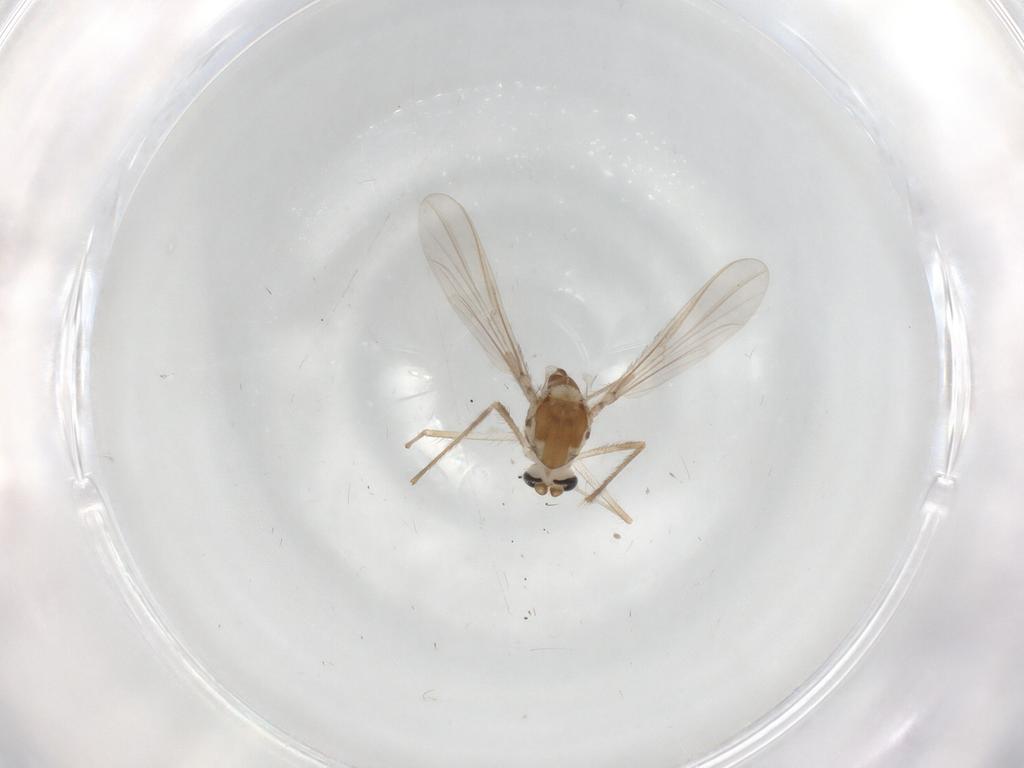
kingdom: Animalia
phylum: Arthropoda
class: Insecta
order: Diptera
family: Chironomidae
